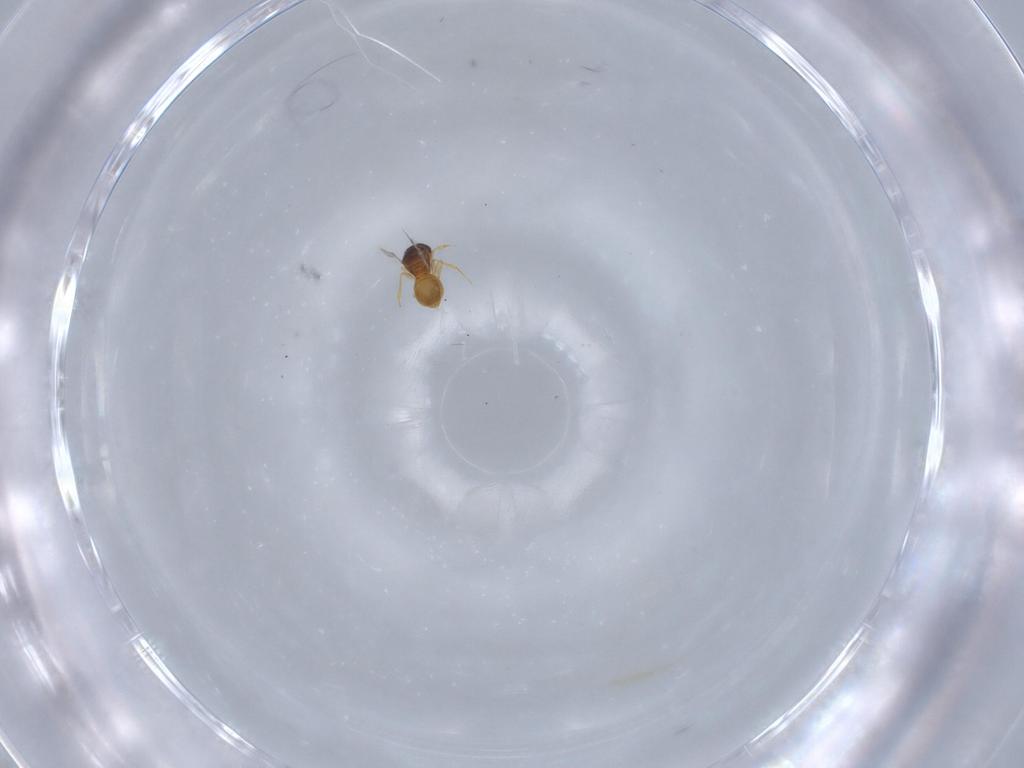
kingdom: Animalia
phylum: Arthropoda
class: Insecta
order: Hymenoptera
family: Scelionidae
